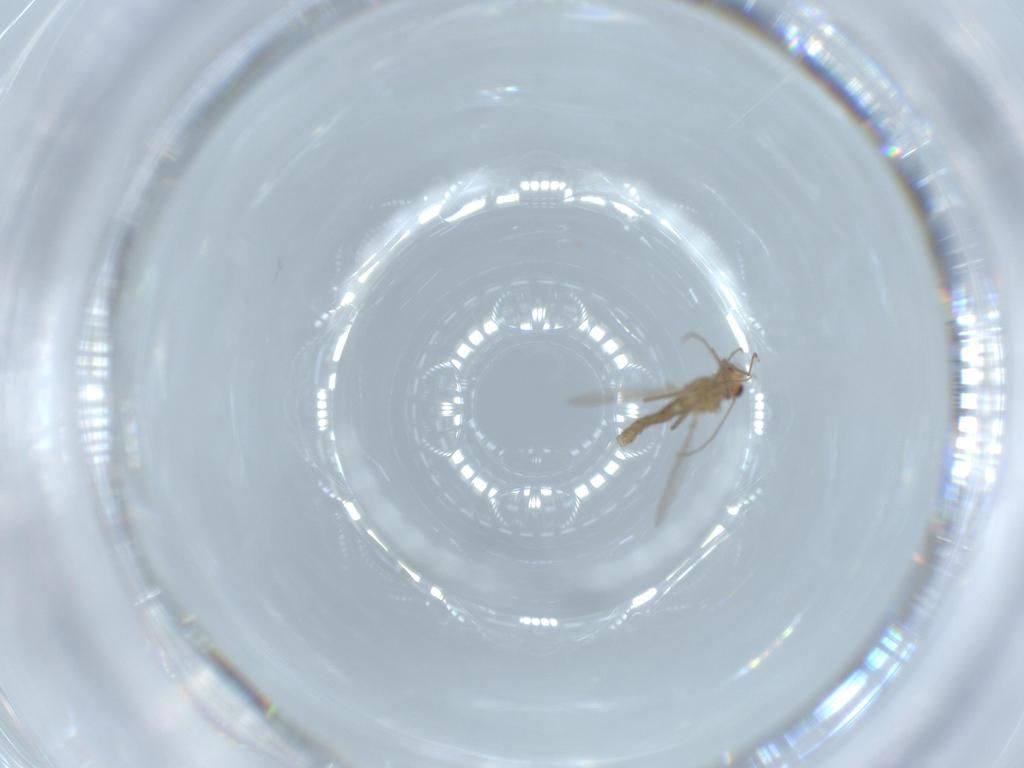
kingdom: Animalia
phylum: Arthropoda
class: Insecta
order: Diptera
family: Chironomidae
